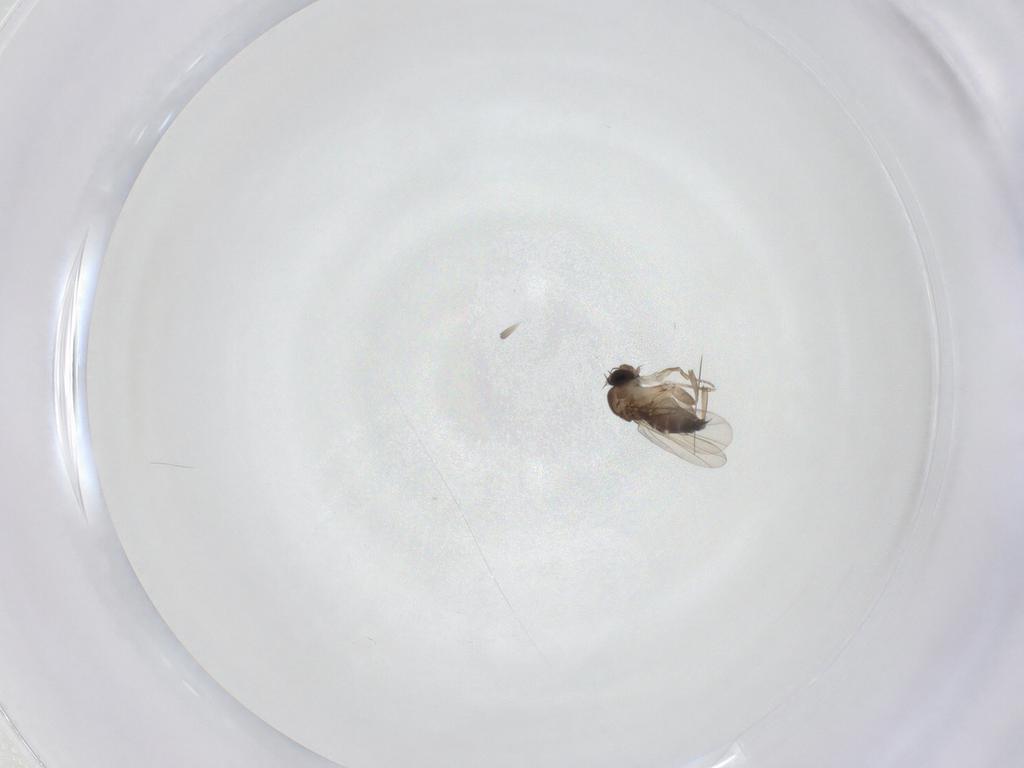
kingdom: Animalia
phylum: Arthropoda
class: Insecta
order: Diptera
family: Phoridae
